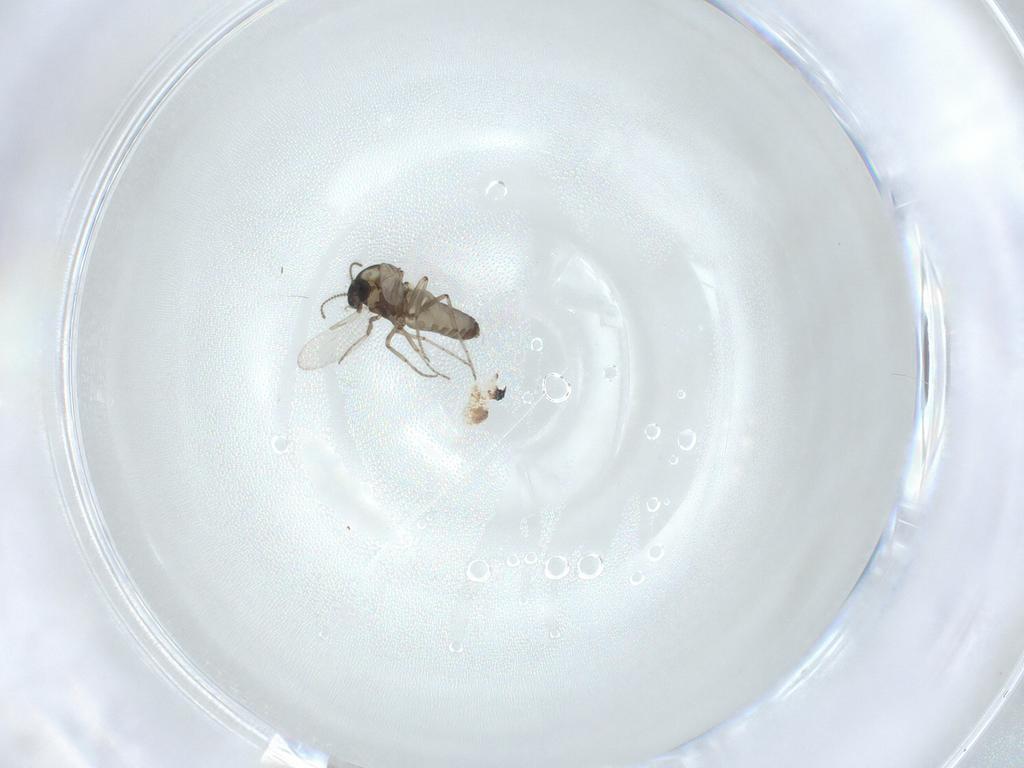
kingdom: Animalia
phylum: Arthropoda
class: Insecta
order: Diptera
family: Ceratopogonidae
